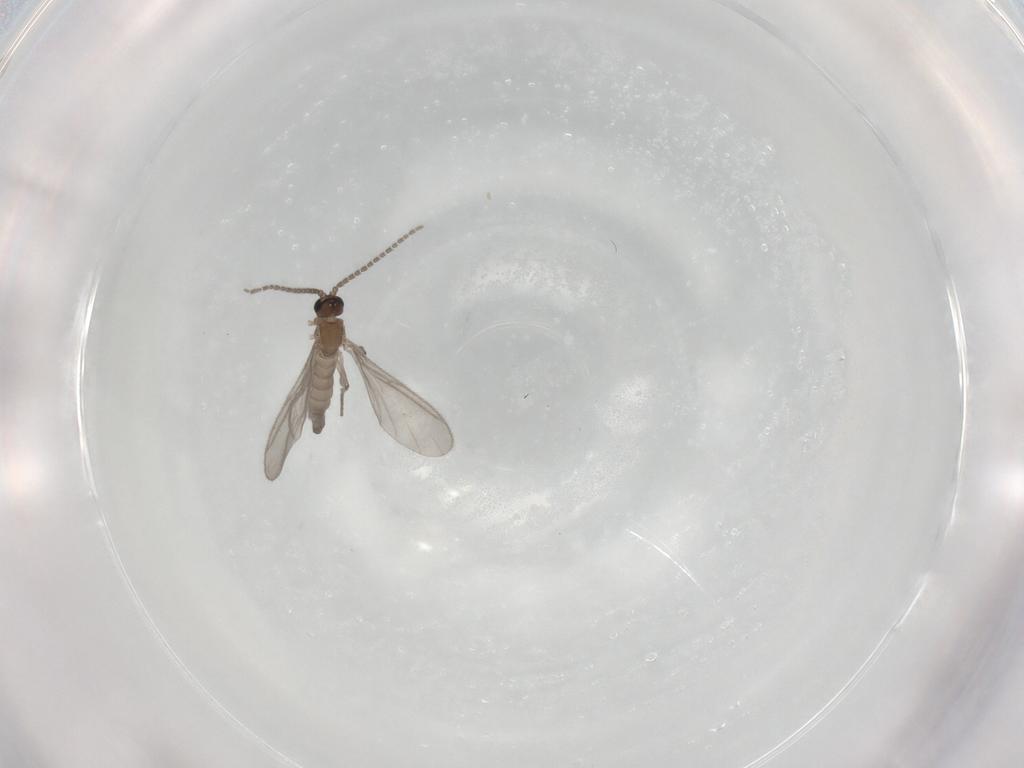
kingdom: Animalia
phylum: Arthropoda
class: Insecta
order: Diptera
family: Phoridae
